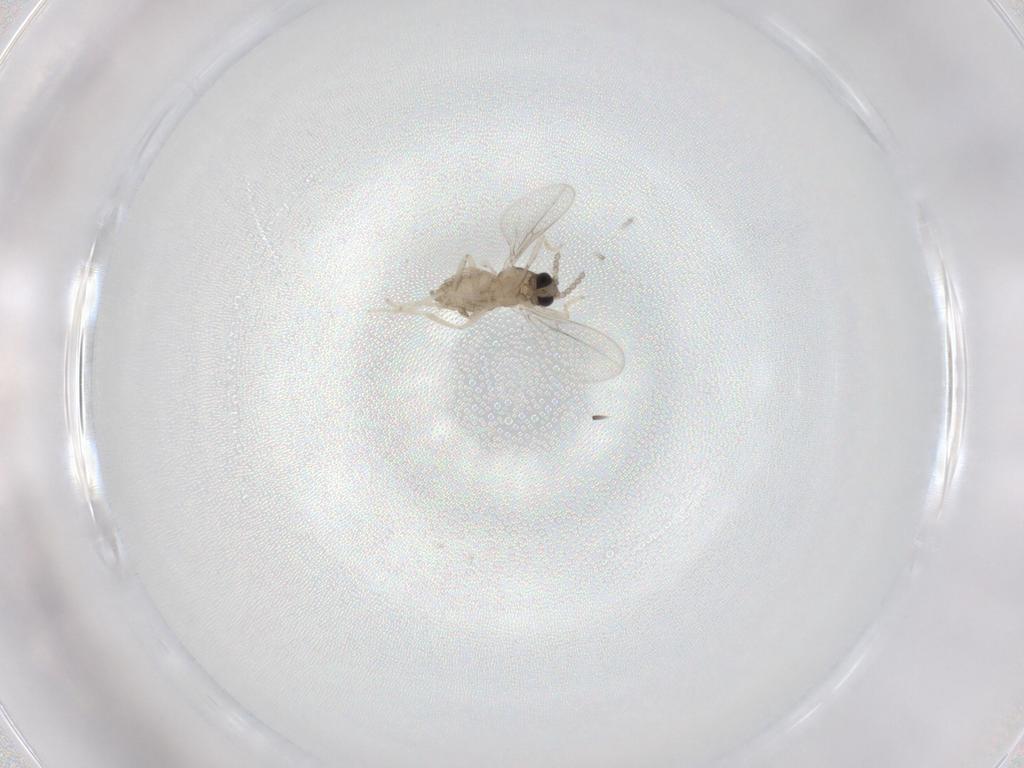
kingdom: Animalia
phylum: Arthropoda
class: Insecta
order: Diptera
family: Cecidomyiidae
